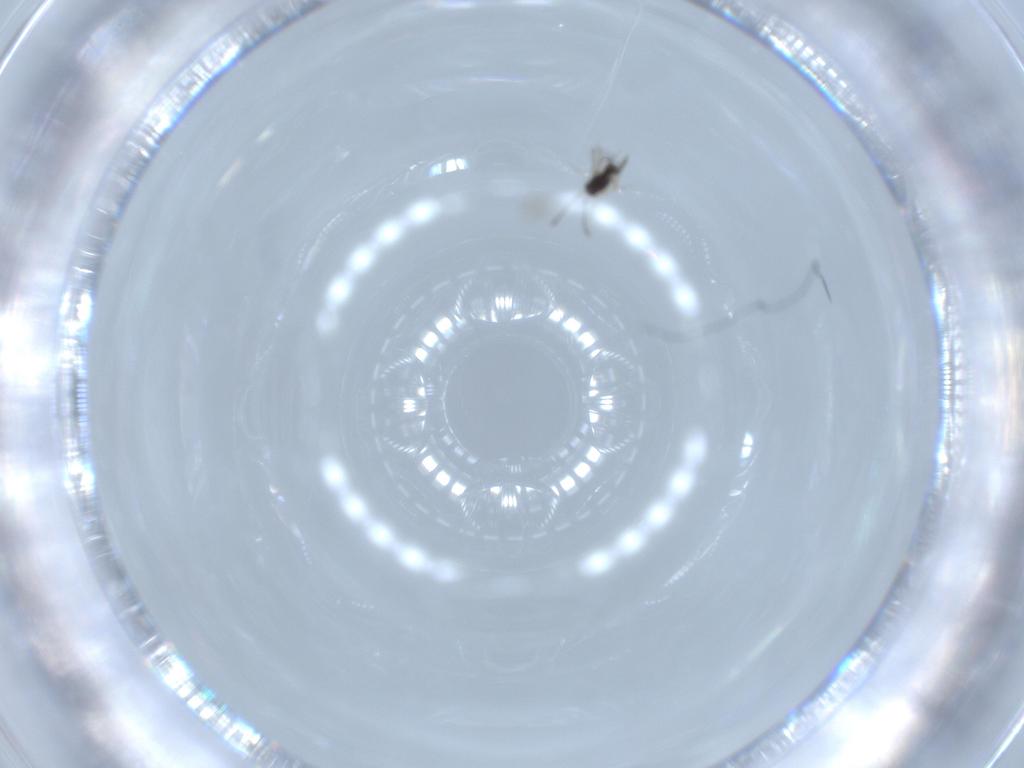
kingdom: Animalia
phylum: Arthropoda
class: Insecta
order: Hymenoptera
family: Mymaridae
